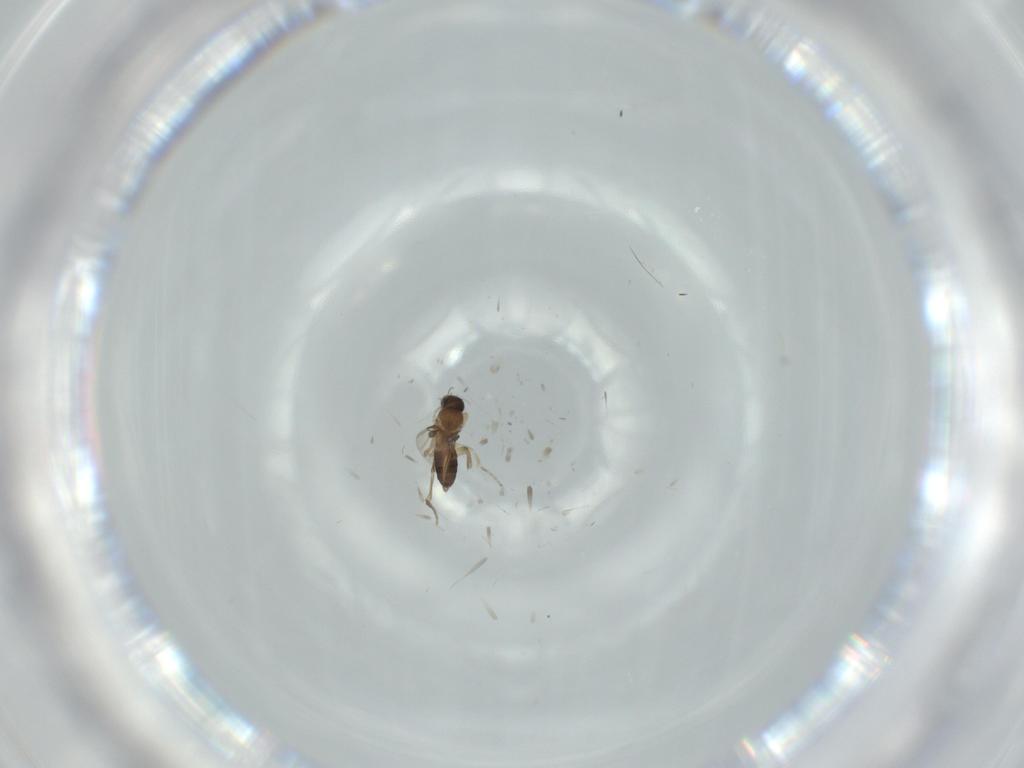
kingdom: Animalia
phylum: Arthropoda
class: Insecta
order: Diptera
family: Phoridae
